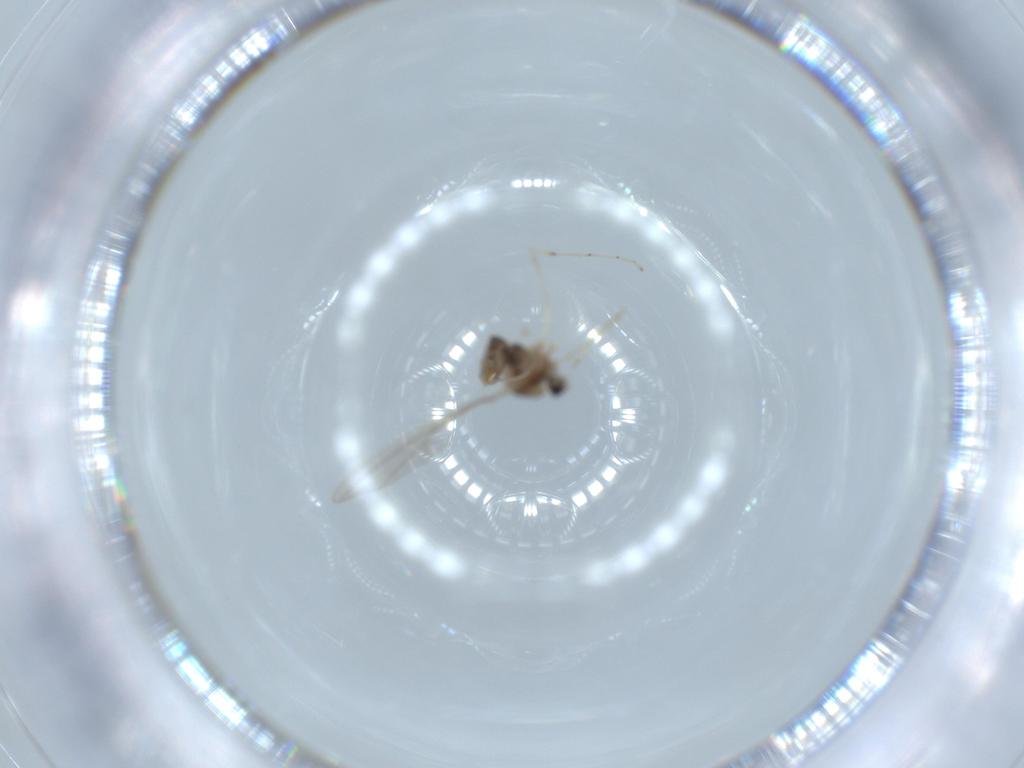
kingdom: Animalia
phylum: Arthropoda
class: Insecta
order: Diptera
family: Cecidomyiidae
